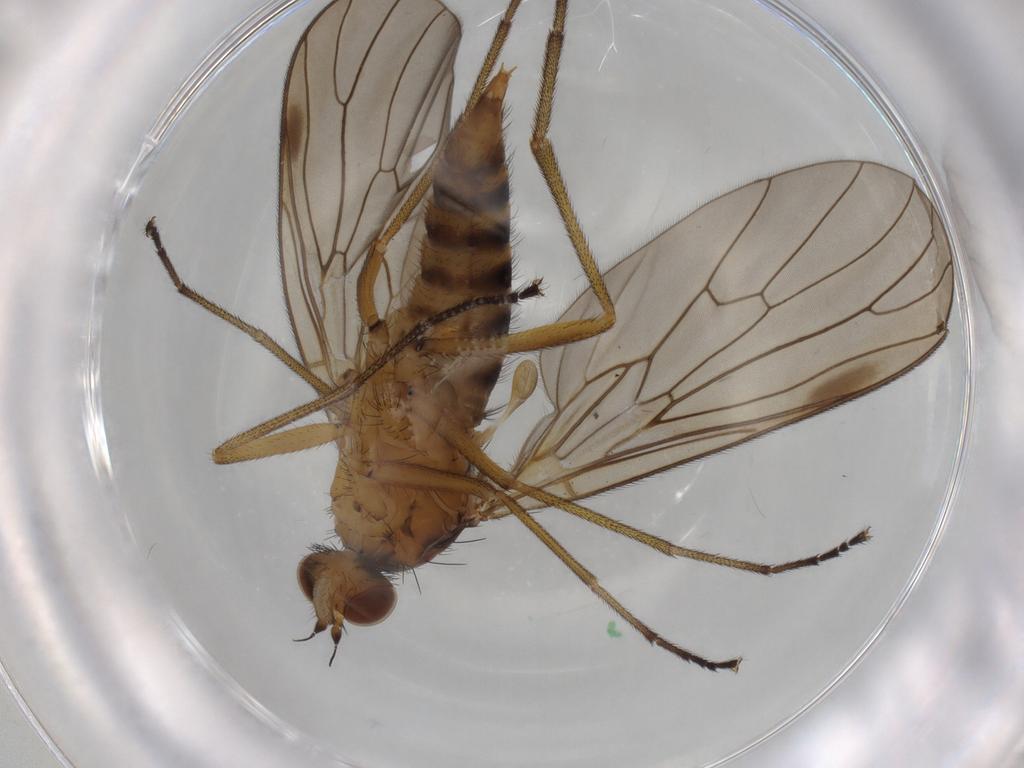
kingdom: Animalia
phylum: Arthropoda
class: Insecta
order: Diptera
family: Brachystomatidae
